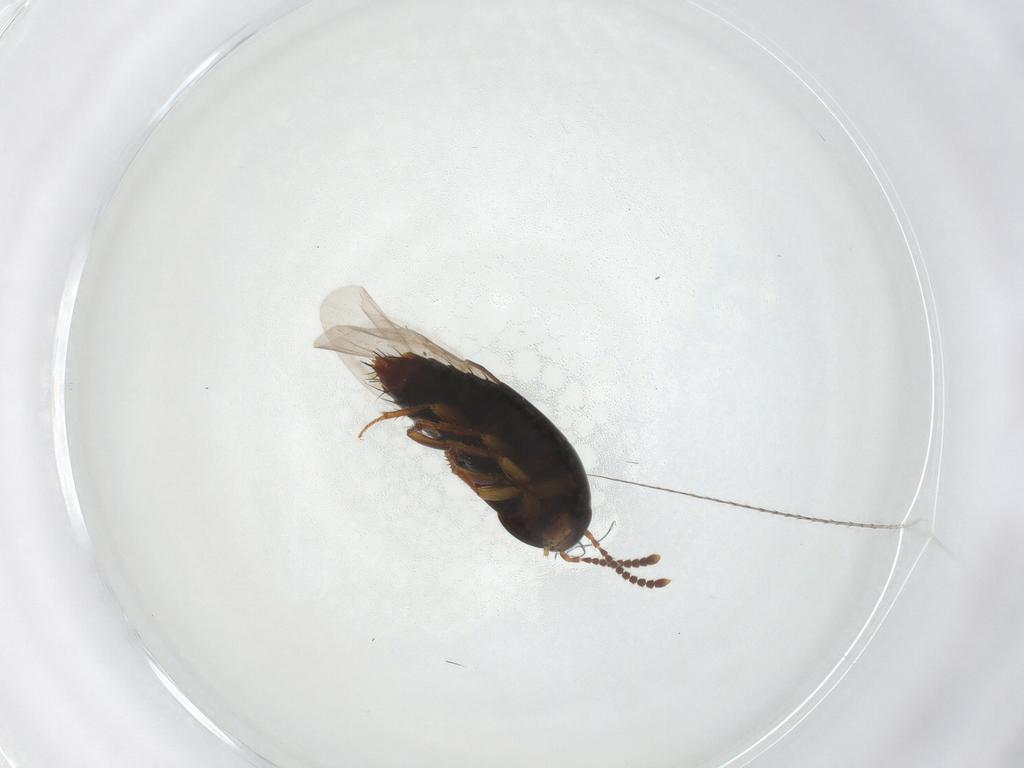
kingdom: Animalia
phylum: Arthropoda
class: Insecta
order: Coleoptera
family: Staphylinidae
